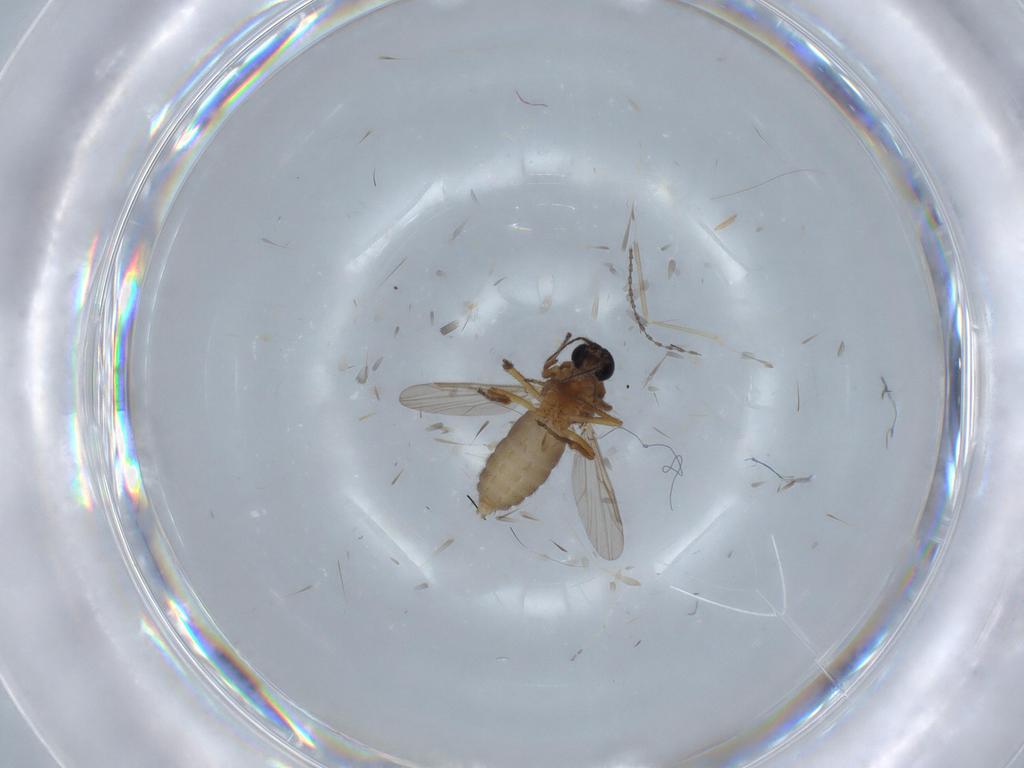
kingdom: Animalia
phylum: Arthropoda
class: Insecta
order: Diptera
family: Ceratopogonidae
